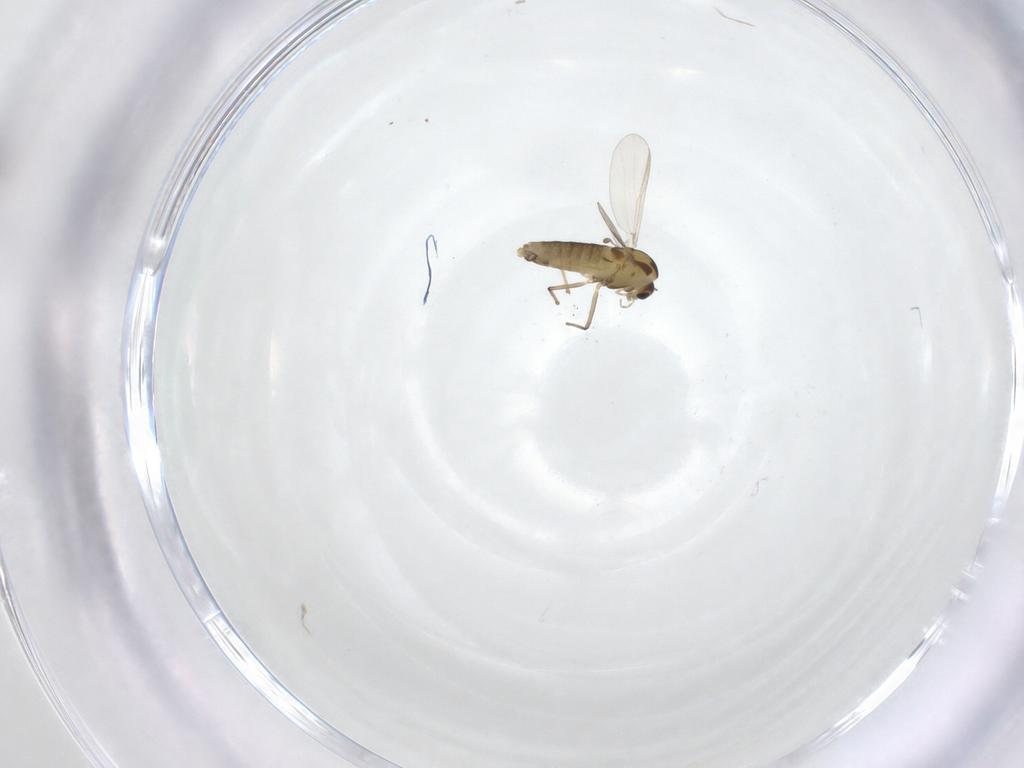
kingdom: Animalia
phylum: Arthropoda
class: Insecta
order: Diptera
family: Chironomidae
